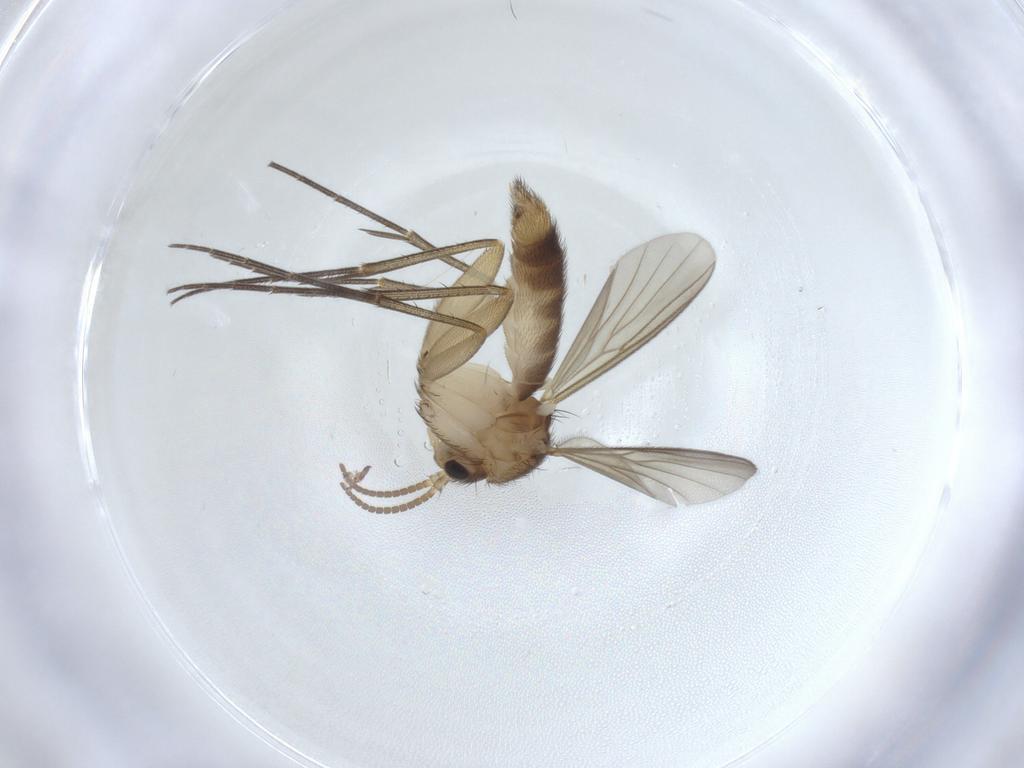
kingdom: Animalia
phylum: Arthropoda
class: Insecta
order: Diptera
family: Mycetophilidae
